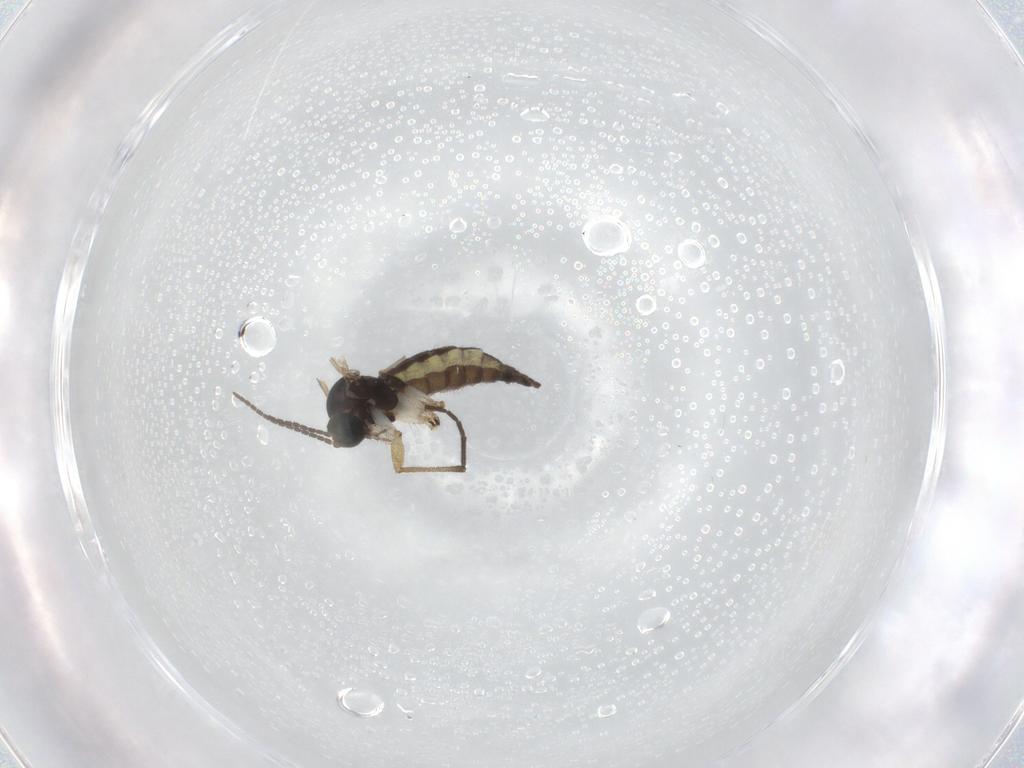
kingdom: Animalia
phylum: Arthropoda
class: Insecta
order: Diptera
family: Sciaridae
